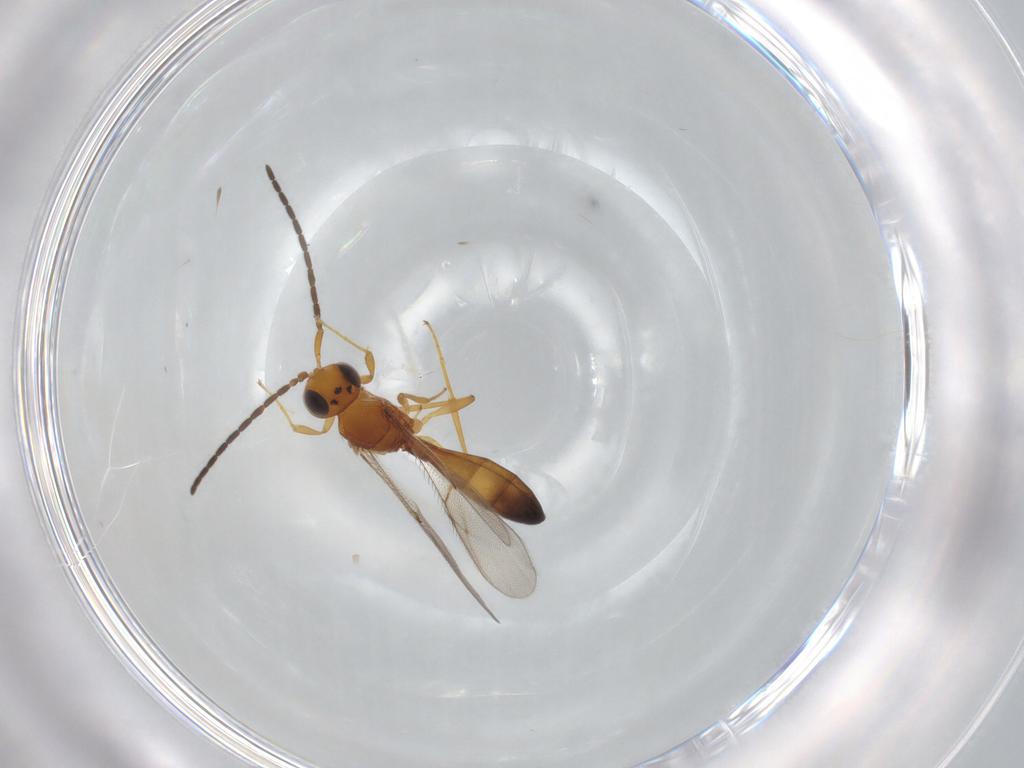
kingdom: Animalia
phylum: Arthropoda
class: Insecta
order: Hymenoptera
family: Scelionidae
